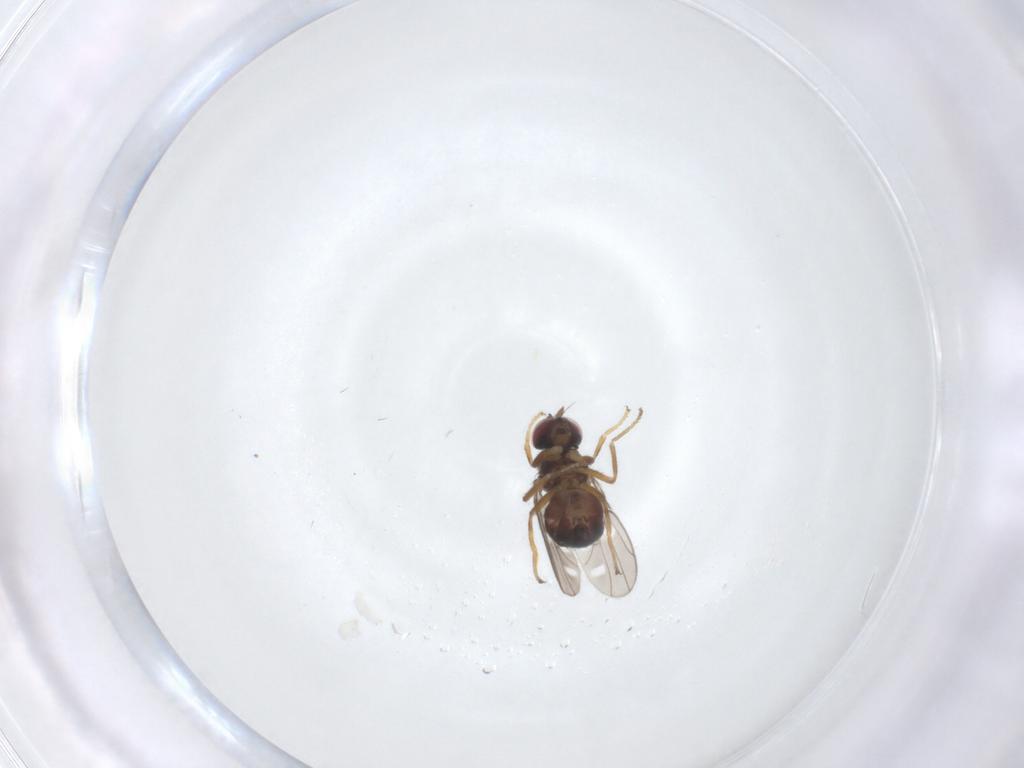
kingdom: Animalia
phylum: Arthropoda
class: Insecta
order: Diptera
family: Ephydridae
